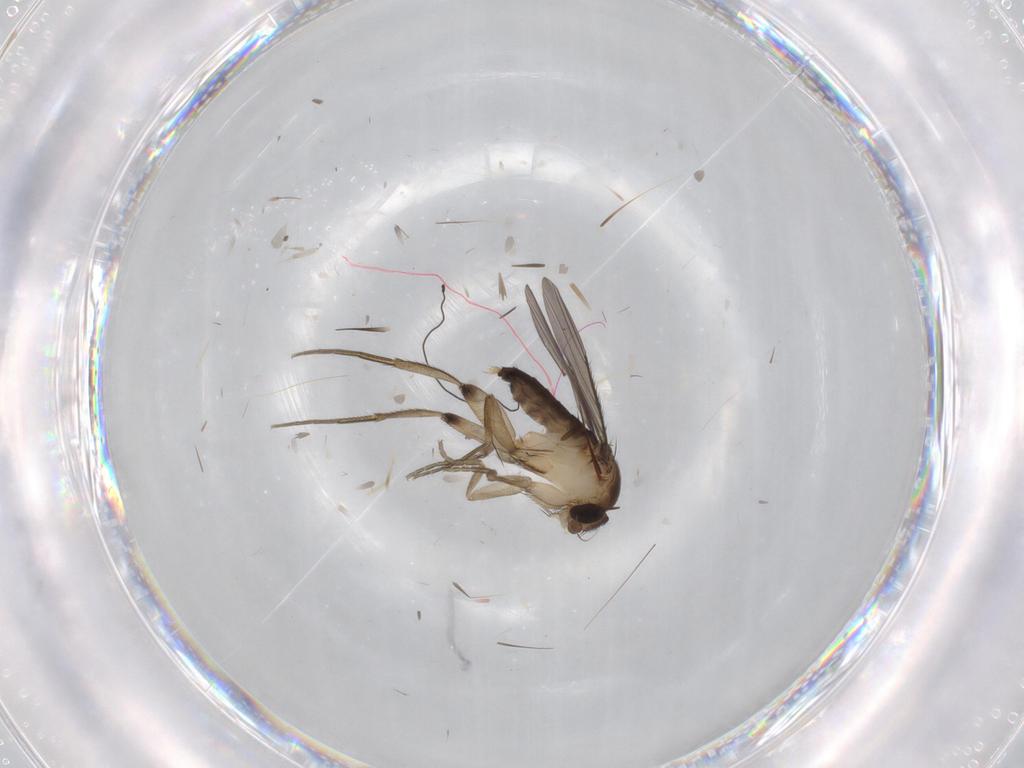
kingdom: Animalia
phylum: Arthropoda
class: Insecta
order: Diptera
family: Phoridae
